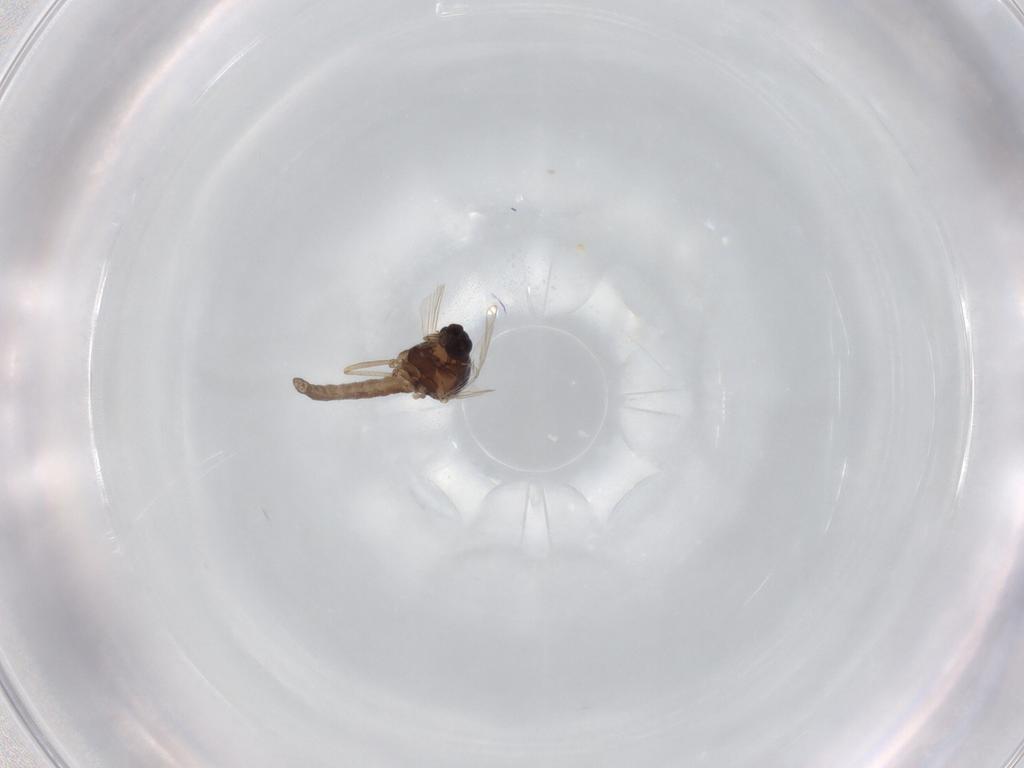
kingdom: Animalia
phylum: Arthropoda
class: Insecta
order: Diptera
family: Ceratopogonidae
